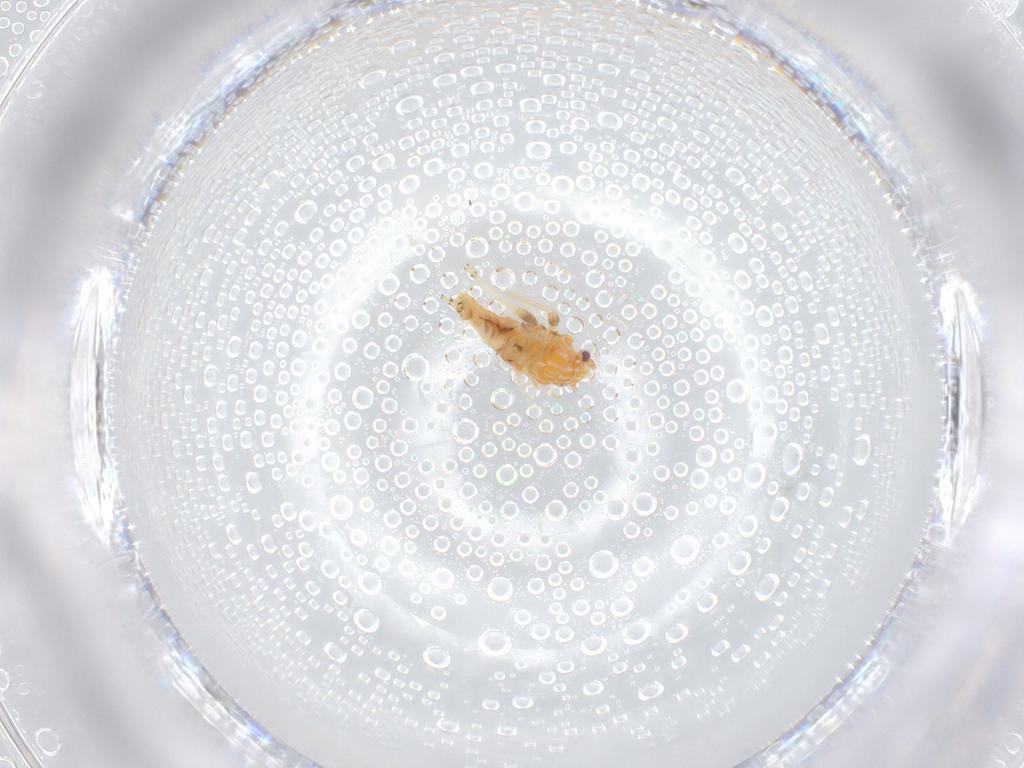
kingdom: Animalia
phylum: Arthropoda
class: Insecta
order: Hemiptera
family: Psyllidae
